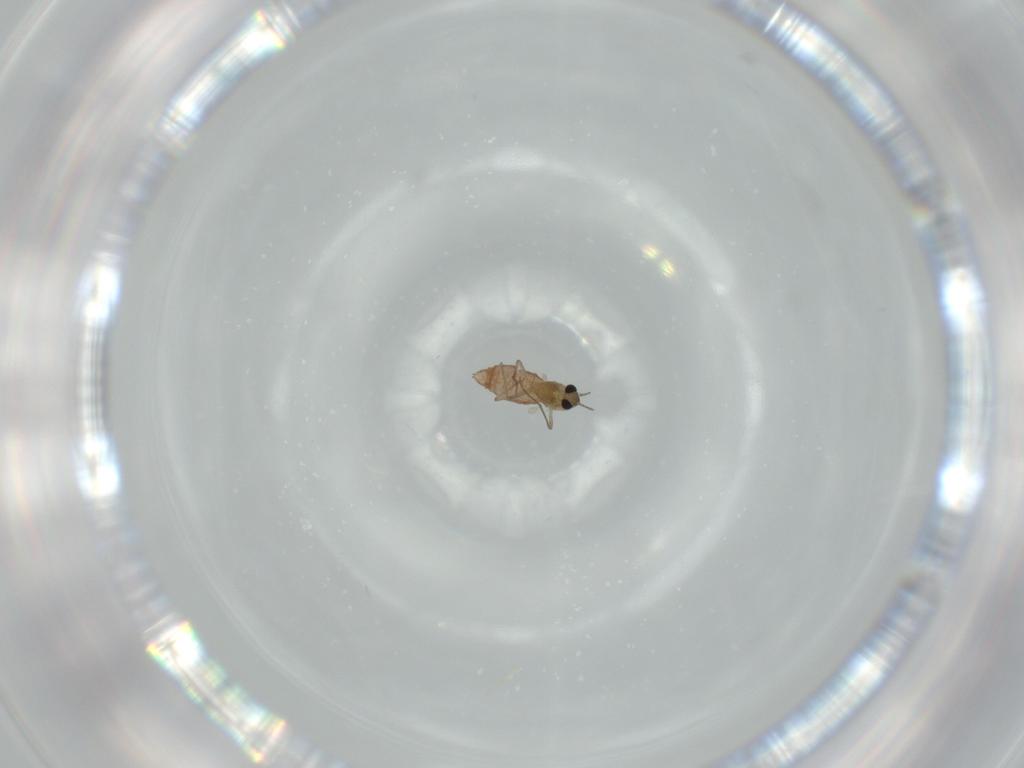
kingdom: Animalia
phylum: Arthropoda
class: Insecta
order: Diptera
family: Chironomidae
